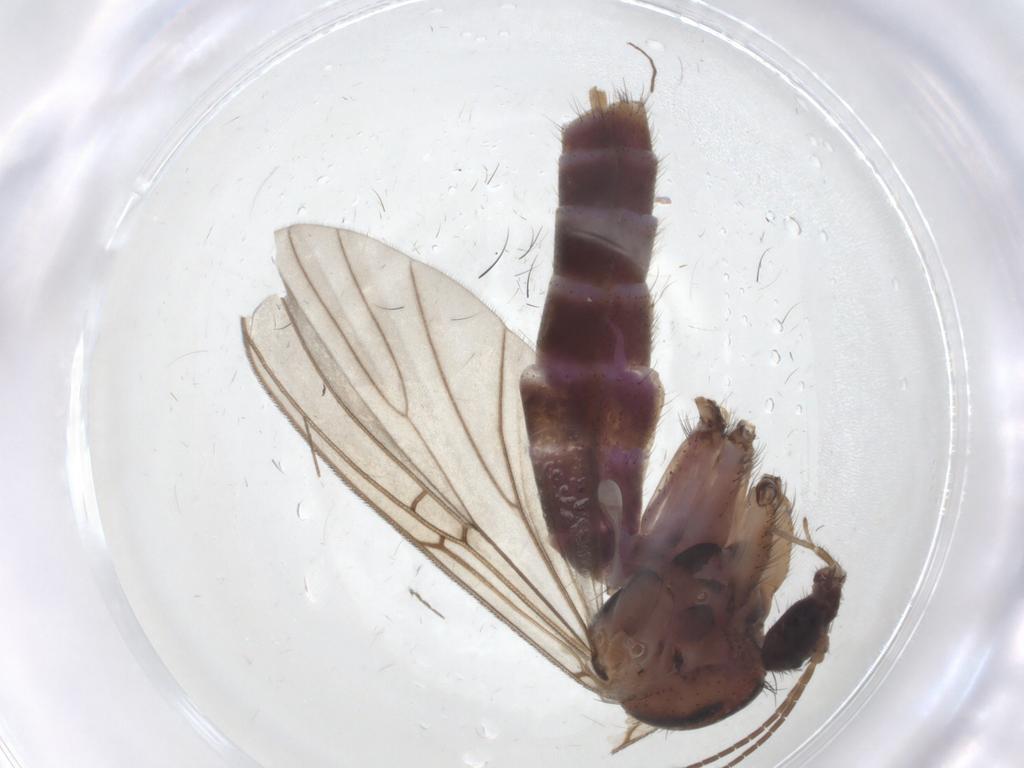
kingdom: Animalia
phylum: Arthropoda
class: Insecta
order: Diptera
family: Mycetophilidae
